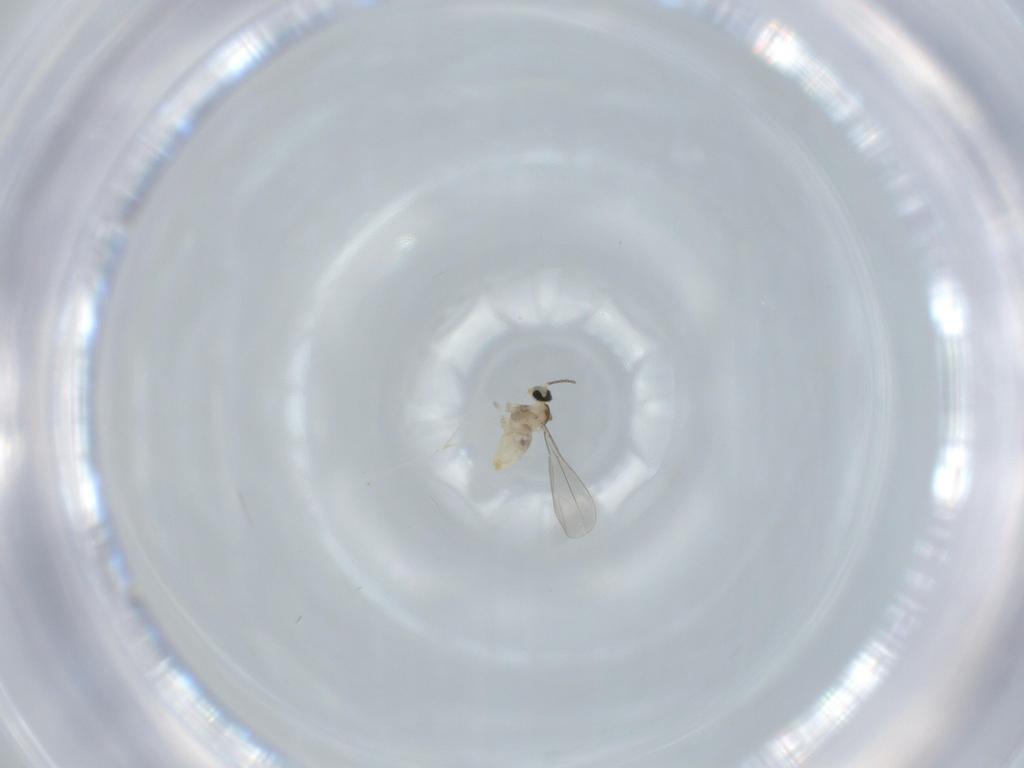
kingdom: Animalia
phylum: Arthropoda
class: Insecta
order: Diptera
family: Cecidomyiidae
